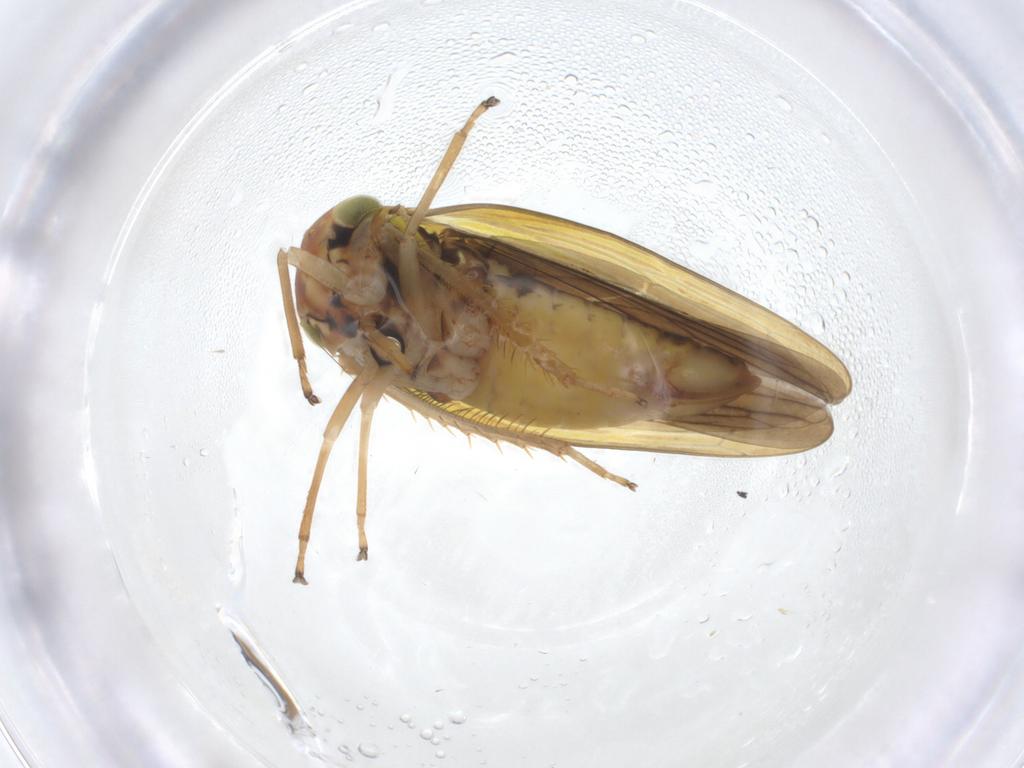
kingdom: Animalia
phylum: Arthropoda
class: Insecta
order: Hemiptera
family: Cicadellidae
